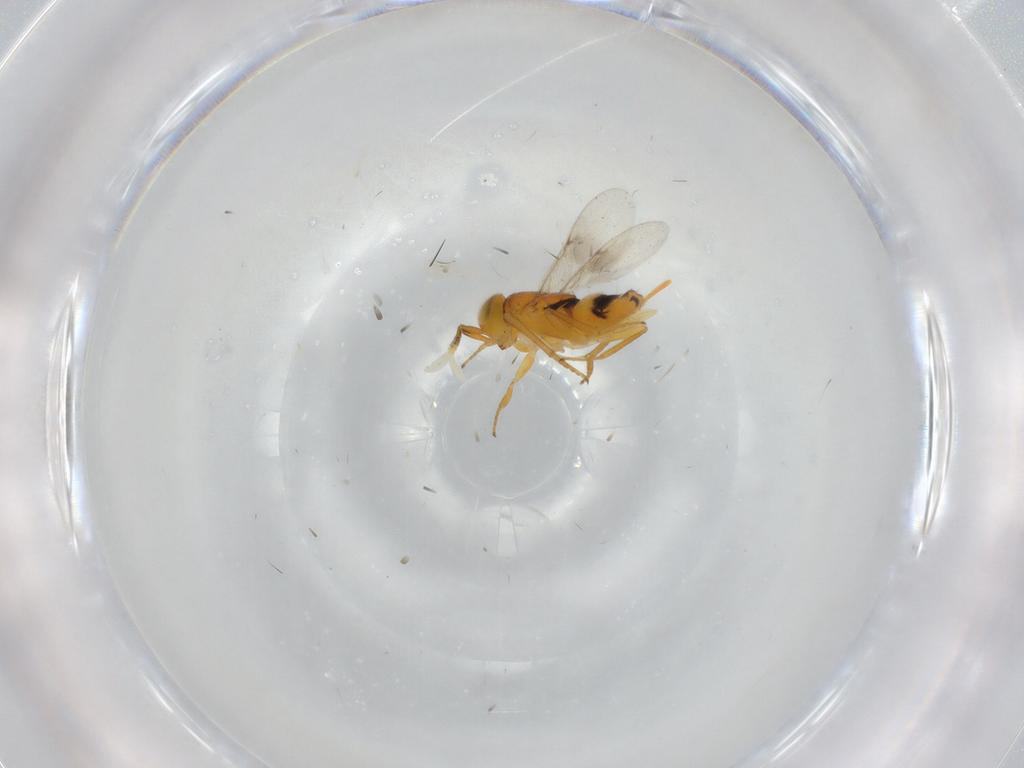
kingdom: Animalia
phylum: Arthropoda
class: Insecta
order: Hymenoptera
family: Encyrtidae
